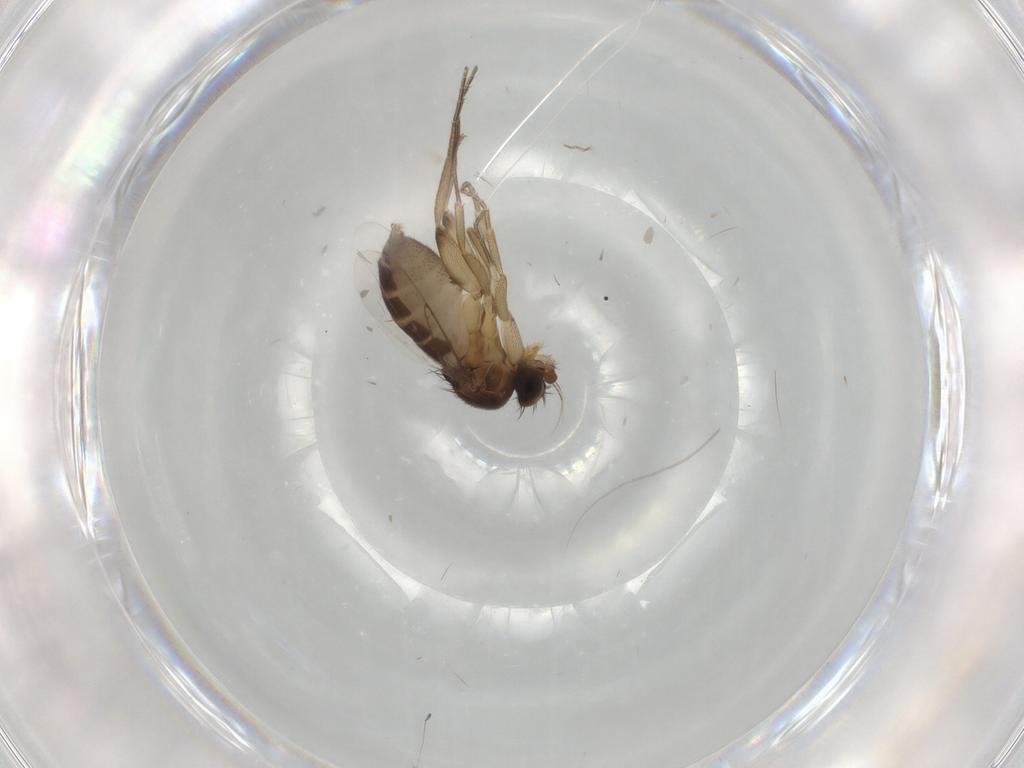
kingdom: Animalia
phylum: Arthropoda
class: Insecta
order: Diptera
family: Phoridae
